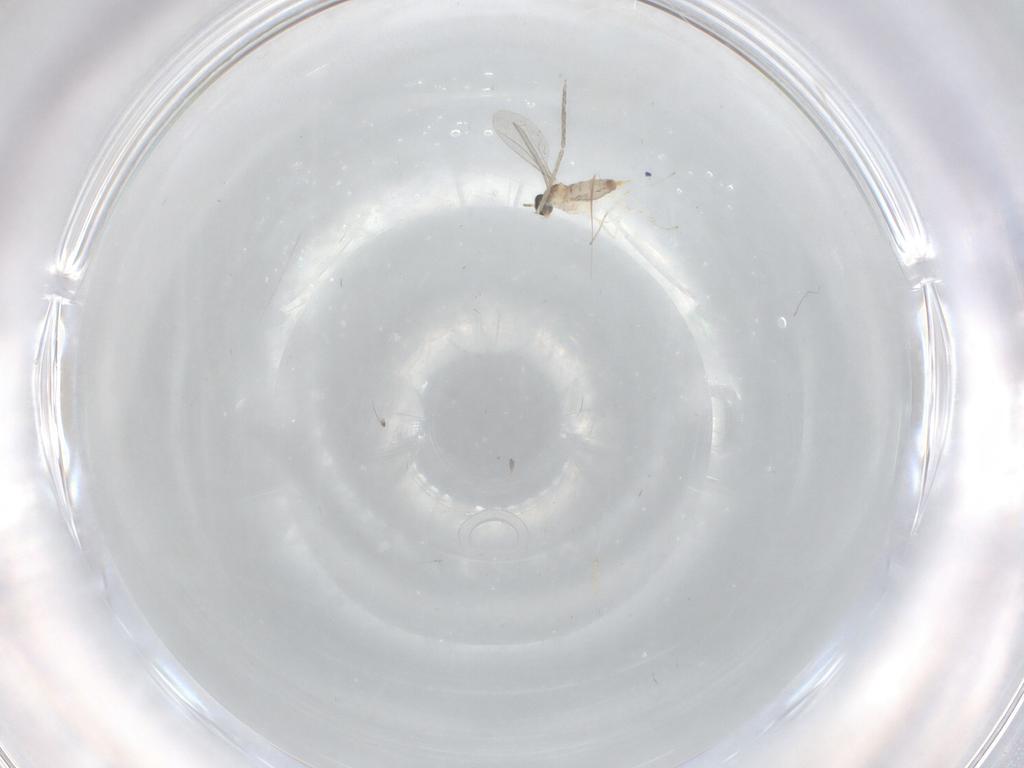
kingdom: Animalia
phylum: Arthropoda
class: Insecta
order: Diptera
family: Cecidomyiidae
